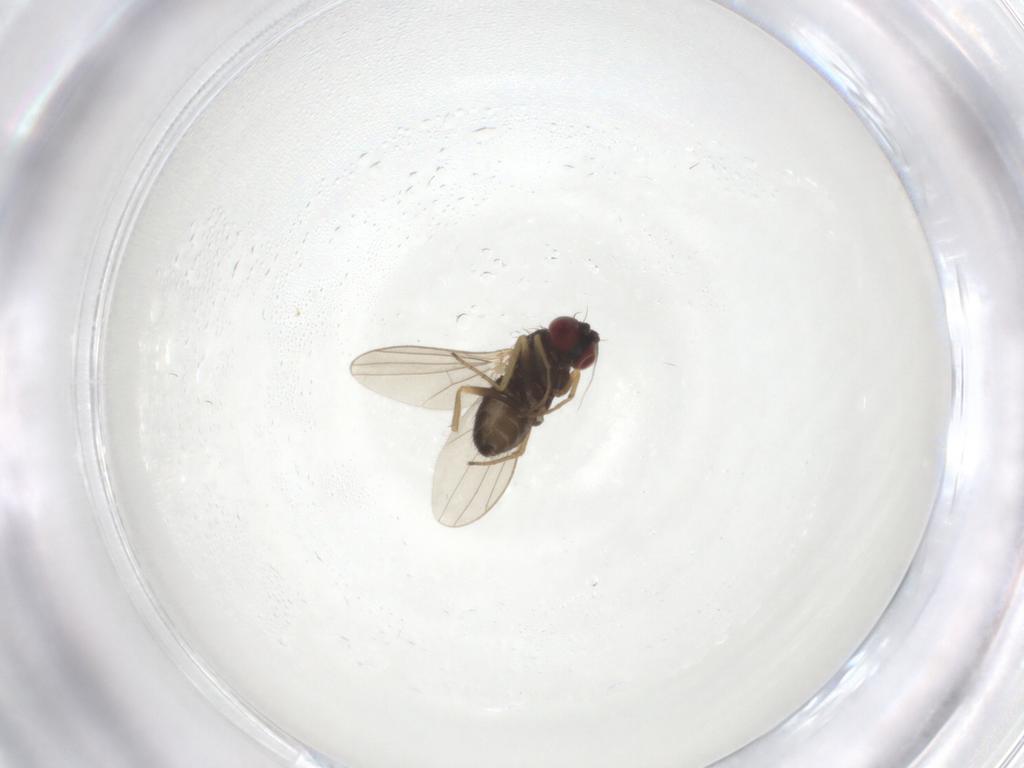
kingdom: Animalia
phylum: Arthropoda
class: Insecta
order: Diptera
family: Dolichopodidae
